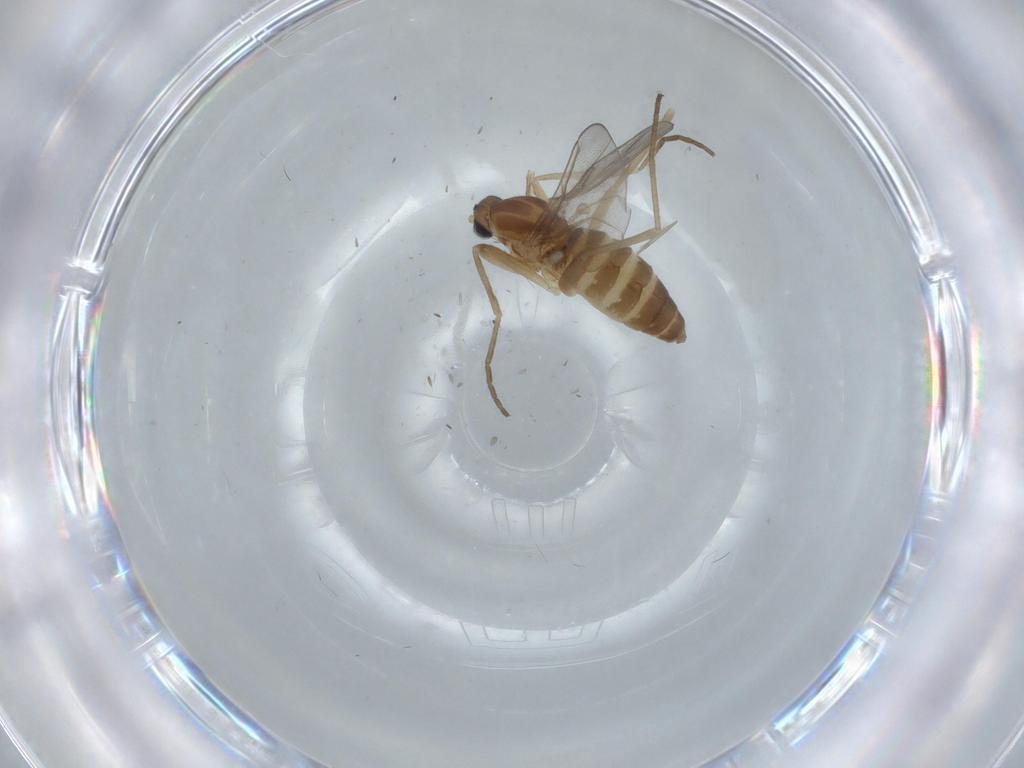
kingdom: Animalia
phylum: Arthropoda
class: Insecta
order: Diptera
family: Cecidomyiidae
